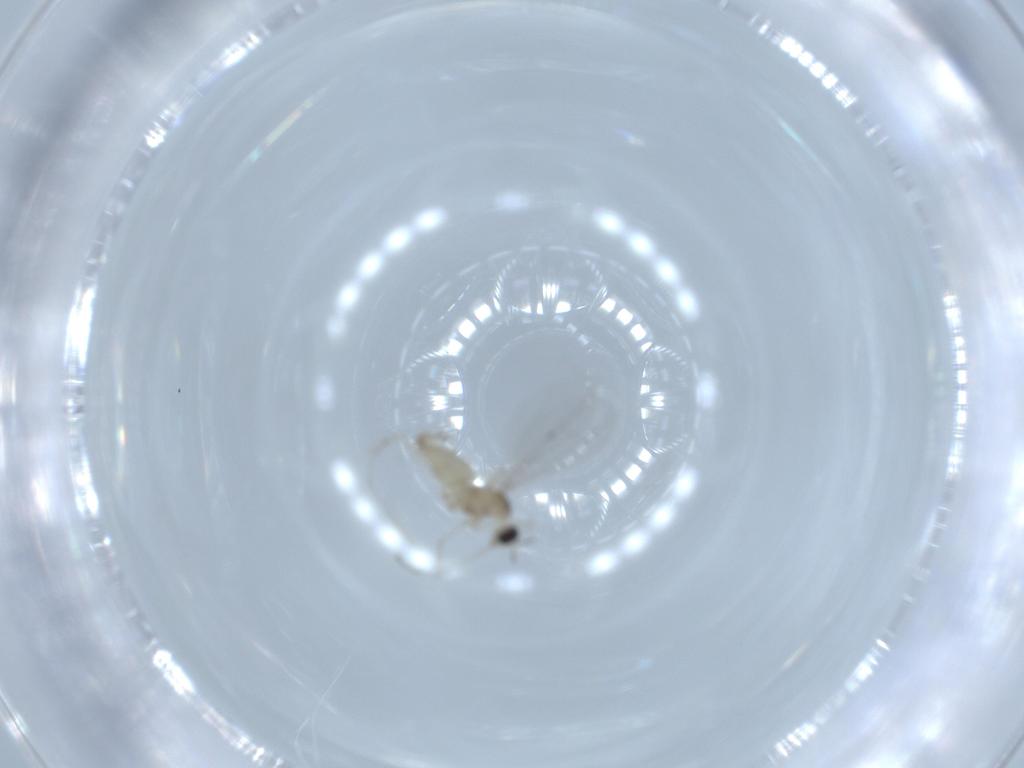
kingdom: Animalia
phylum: Arthropoda
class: Insecta
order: Diptera
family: Cecidomyiidae
